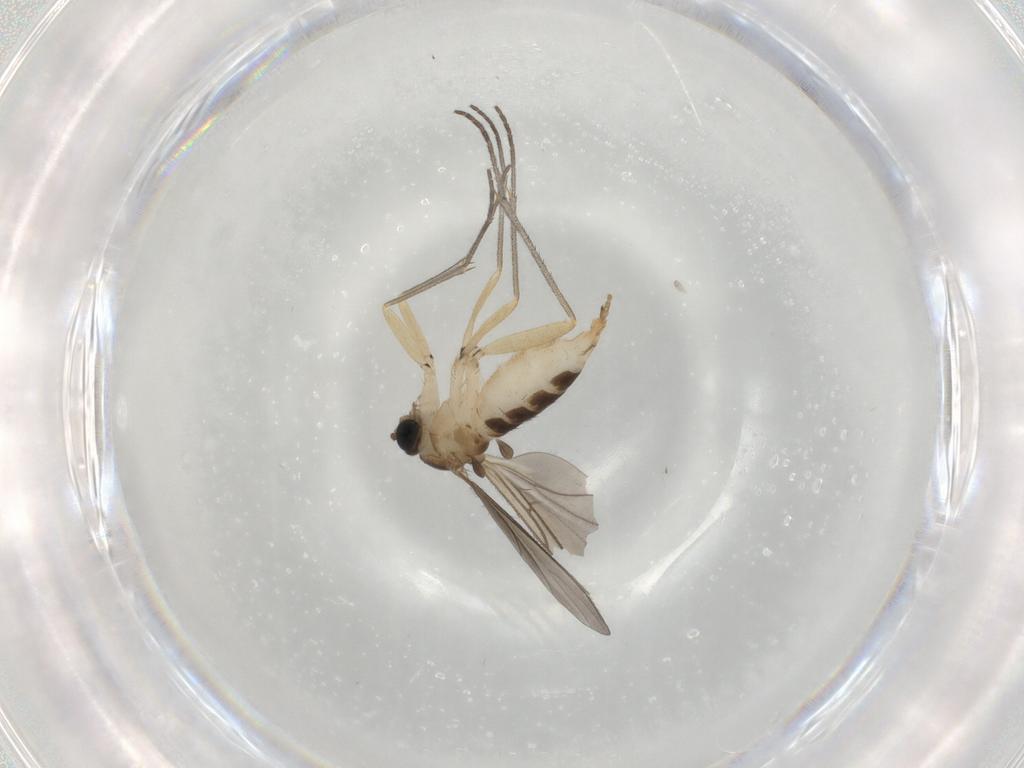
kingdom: Animalia
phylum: Arthropoda
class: Insecta
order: Diptera
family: Sciaridae
